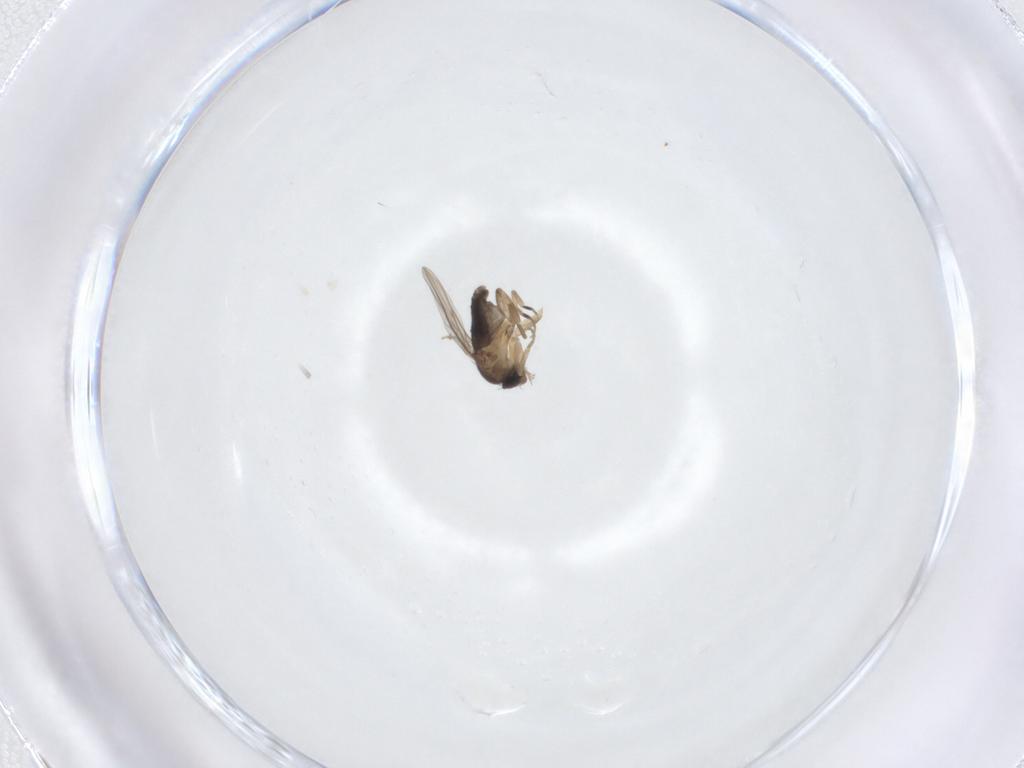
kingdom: Animalia
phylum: Arthropoda
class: Insecta
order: Diptera
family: Phoridae
